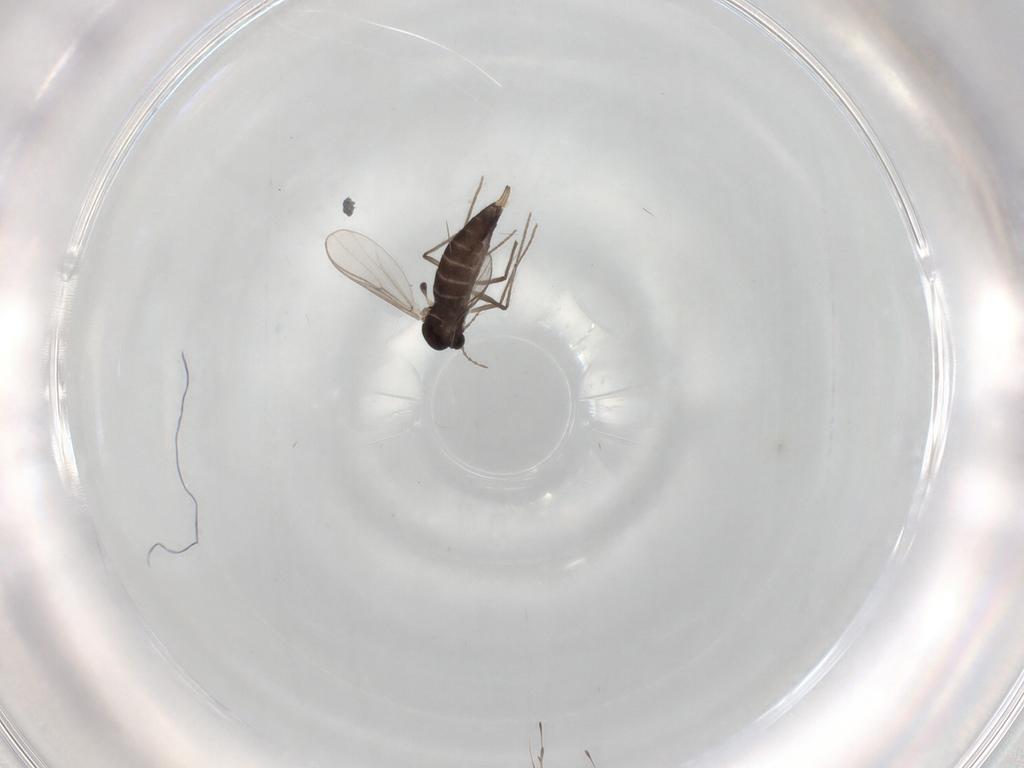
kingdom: Animalia
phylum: Arthropoda
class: Insecta
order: Diptera
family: Chironomidae
